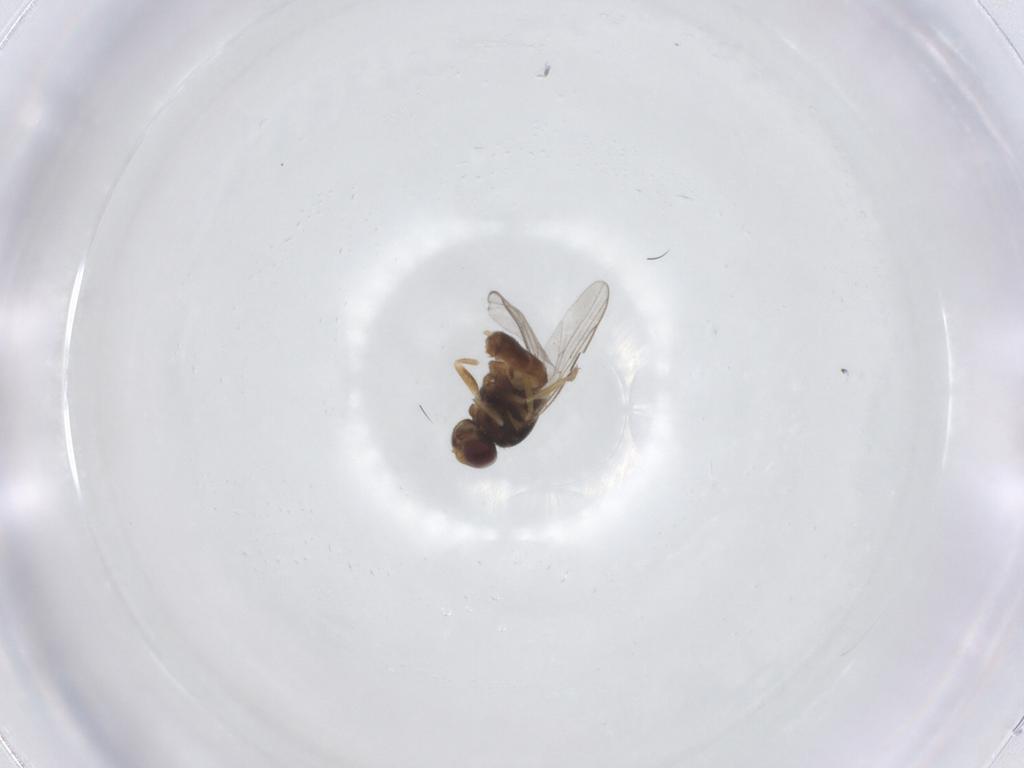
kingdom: Animalia
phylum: Arthropoda
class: Insecta
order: Diptera
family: Chloropidae
